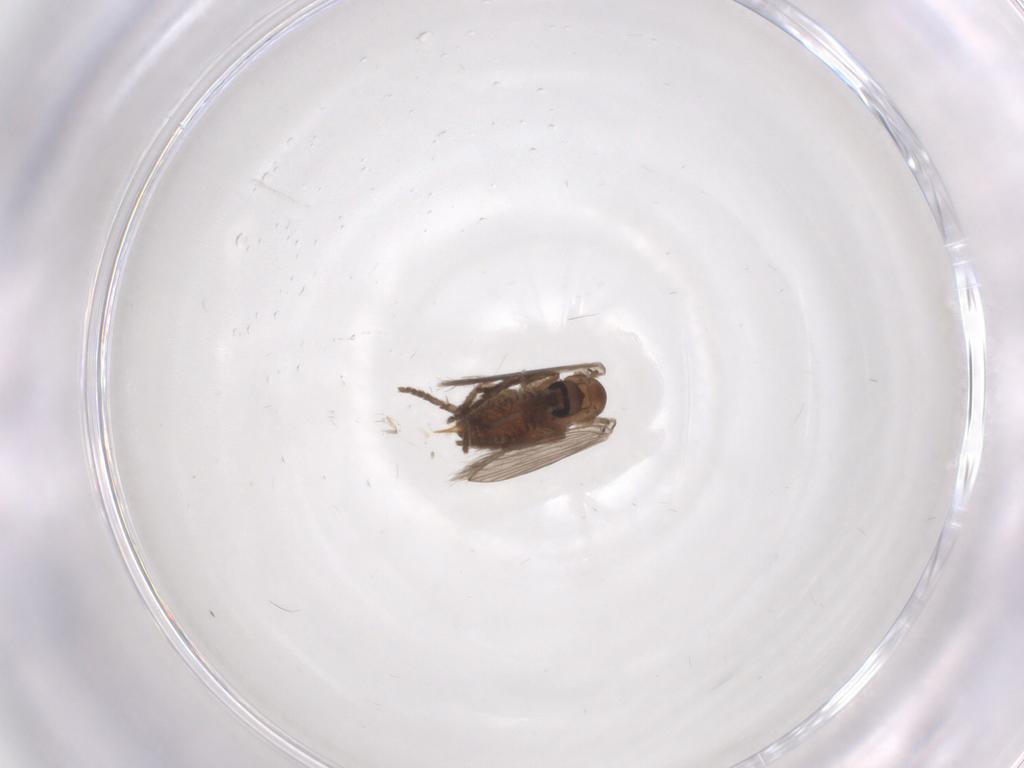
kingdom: Animalia
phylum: Arthropoda
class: Insecta
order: Diptera
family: Psychodidae
